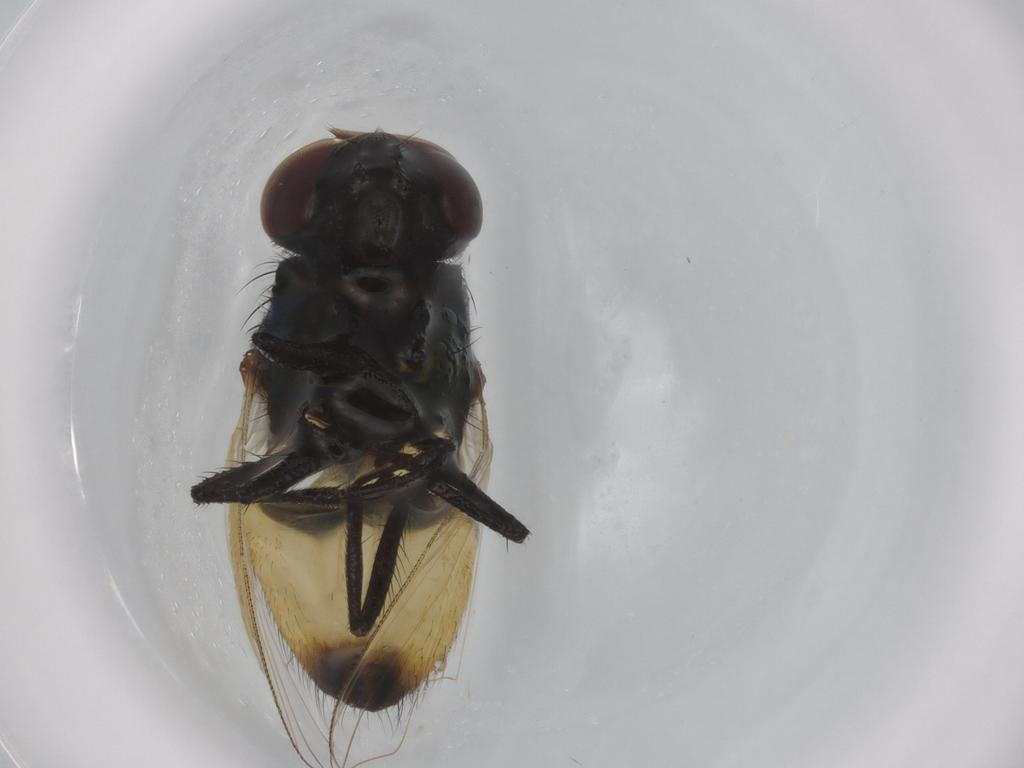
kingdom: Animalia
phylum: Arthropoda
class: Insecta
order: Diptera
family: Muscidae
